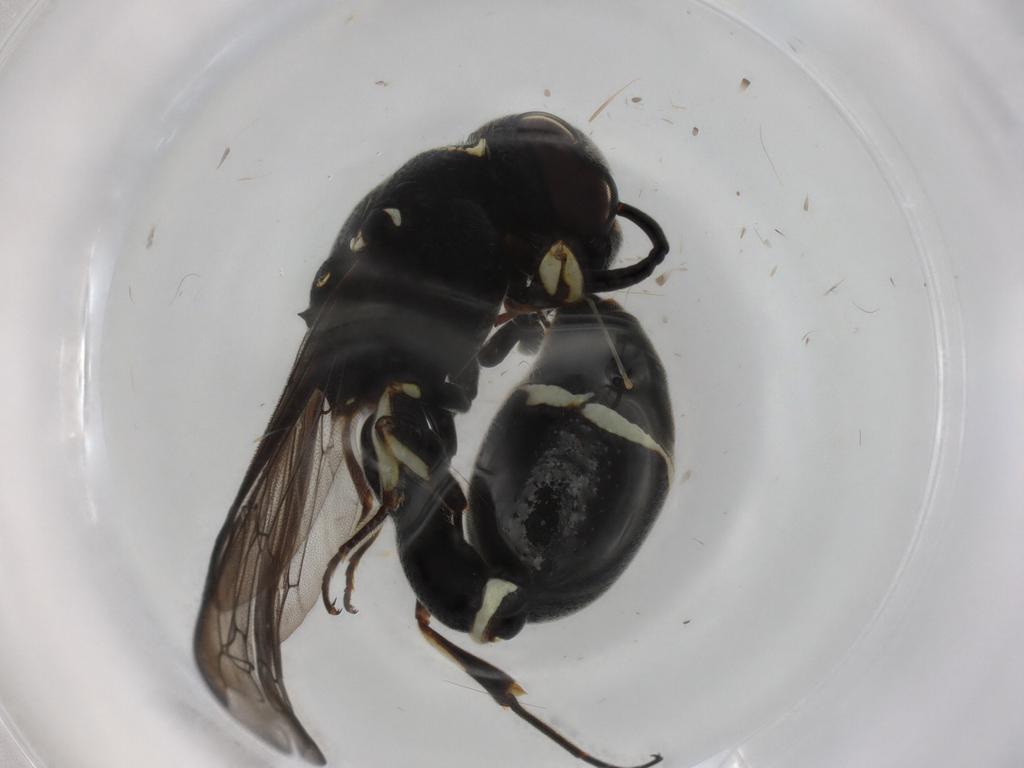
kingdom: Animalia
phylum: Arthropoda
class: Insecta
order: Hymenoptera
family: Vespidae
